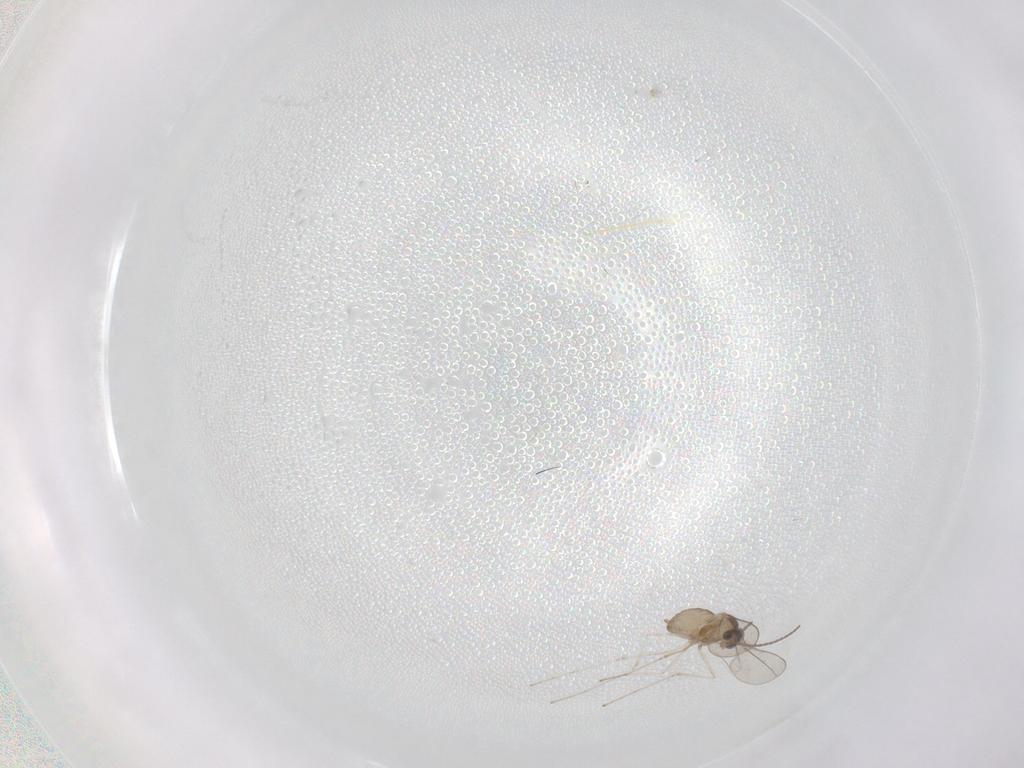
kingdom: Animalia
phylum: Arthropoda
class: Insecta
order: Diptera
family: Cecidomyiidae
